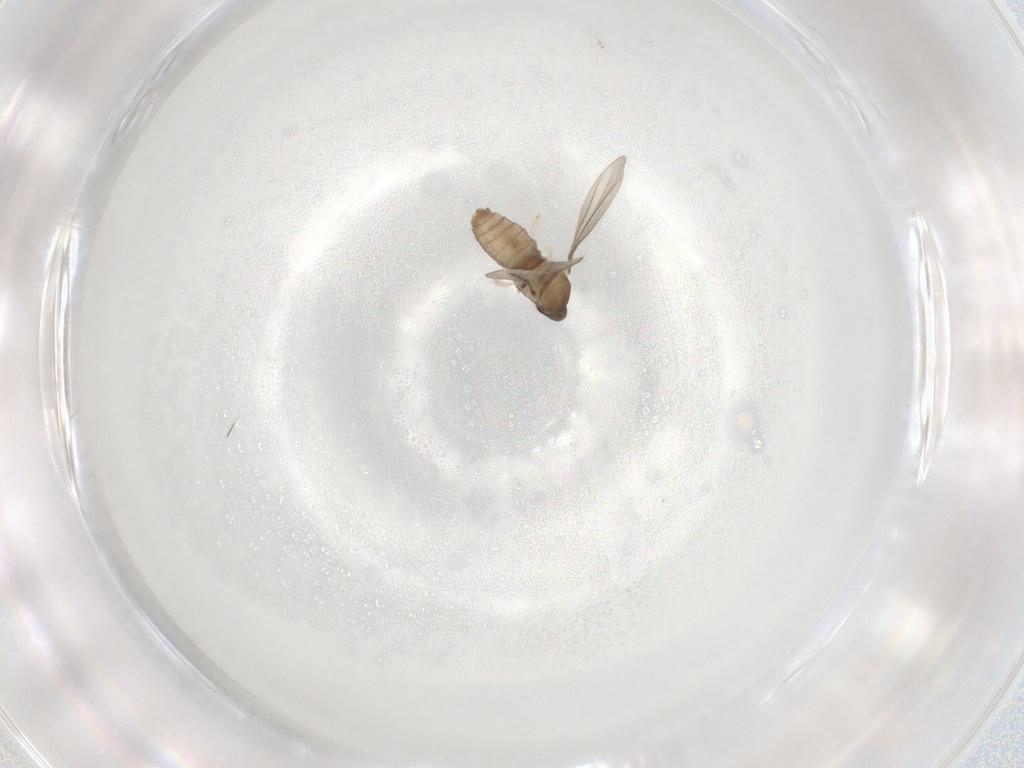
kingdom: Animalia
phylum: Arthropoda
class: Insecta
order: Diptera
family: Cecidomyiidae
